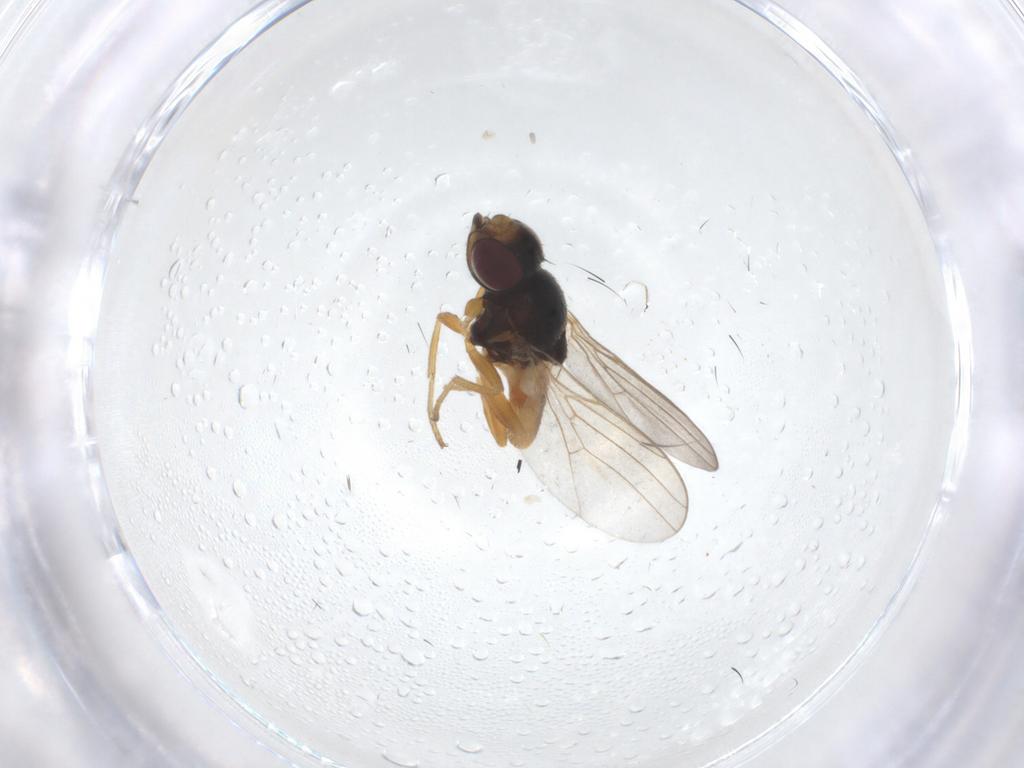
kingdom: Animalia
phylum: Arthropoda
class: Insecta
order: Diptera
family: Chloropidae
